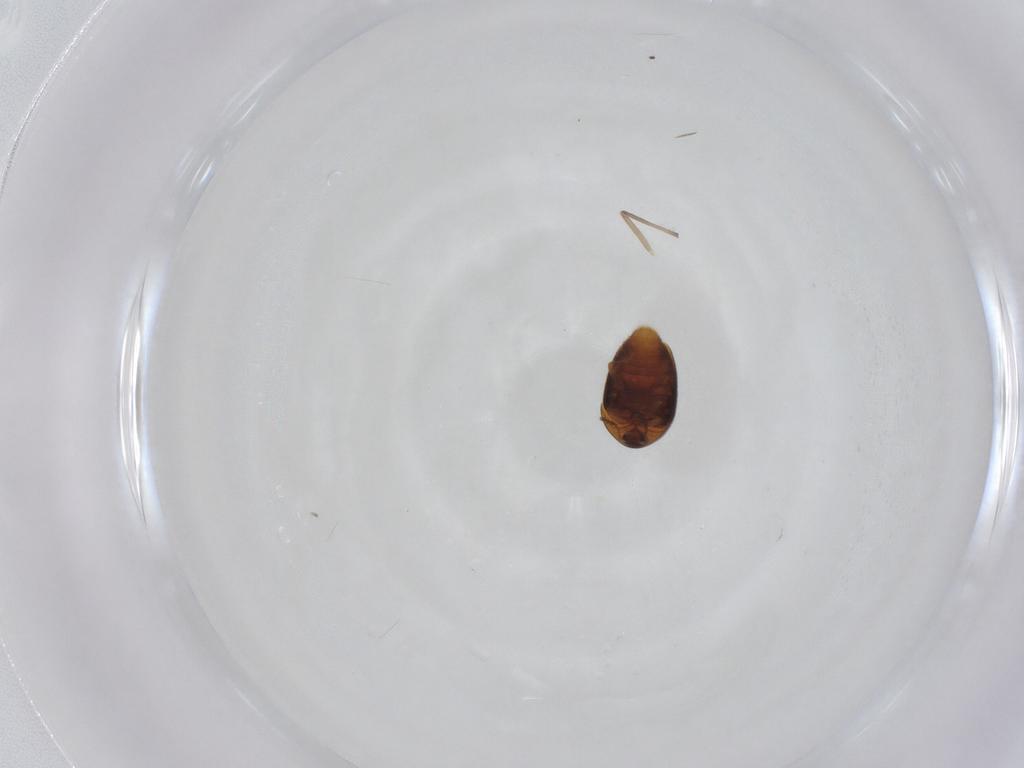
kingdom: Animalia
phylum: Arthropoda
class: Insecta
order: Coleoptera
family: Corylophidae
